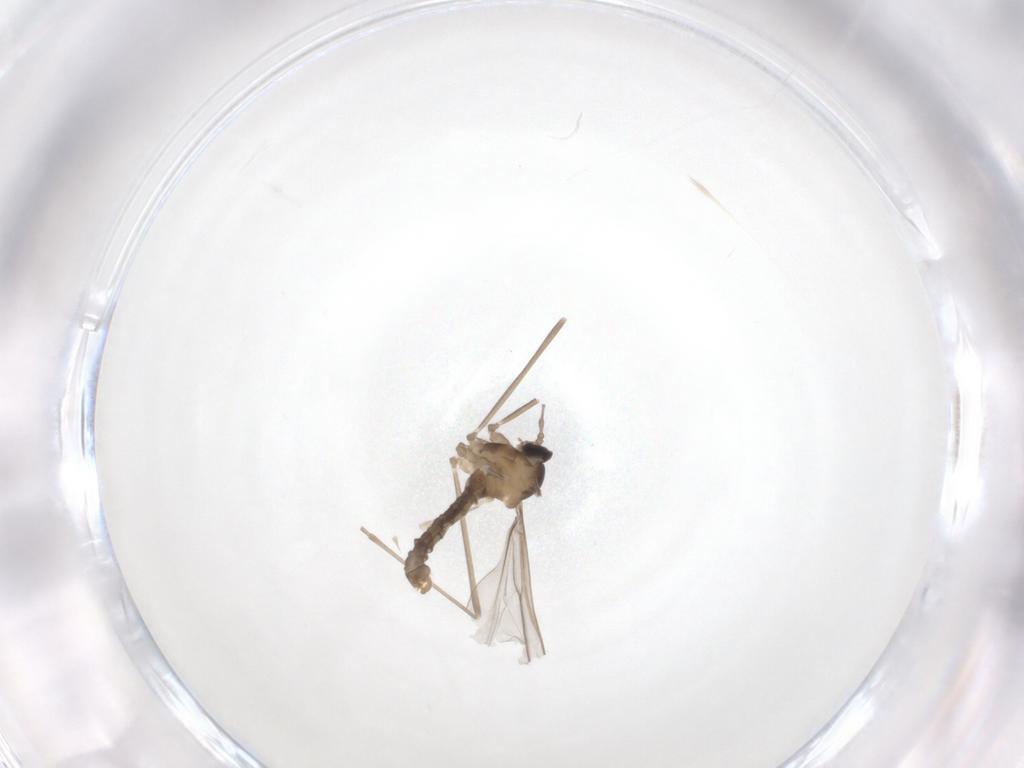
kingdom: Animalia
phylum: Arthropoda
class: Insecta
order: Diptera
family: Cecidomyiidae
